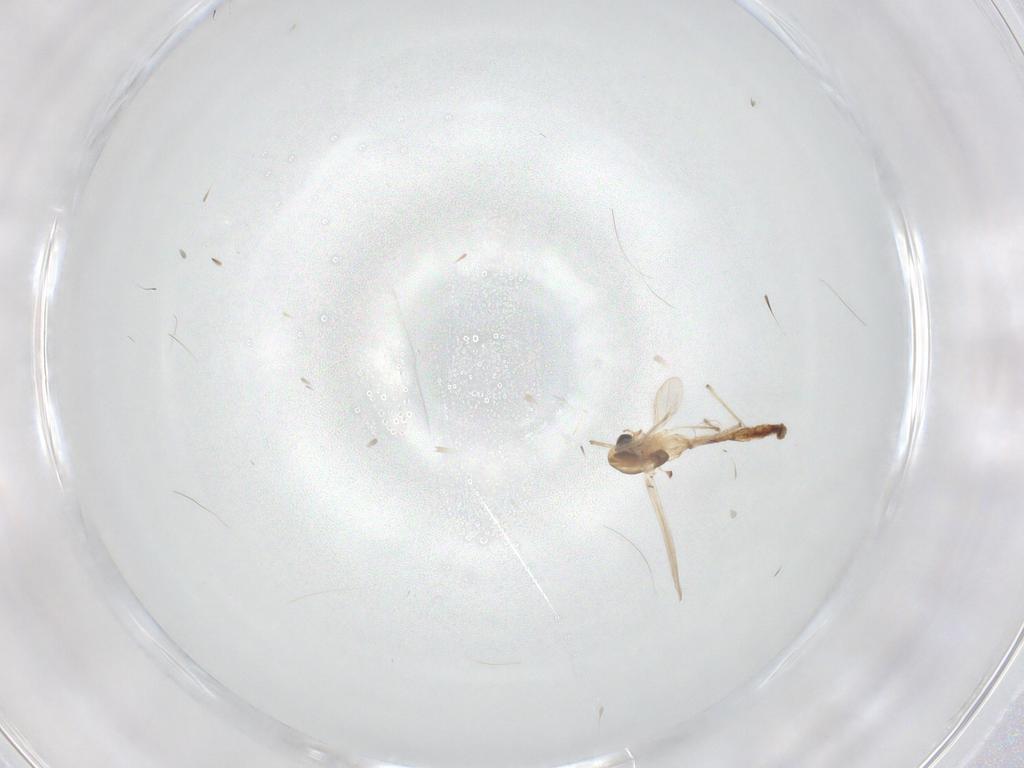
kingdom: Animalia
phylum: Arthropoda
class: Insecta
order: Diptera
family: Chironomidae
